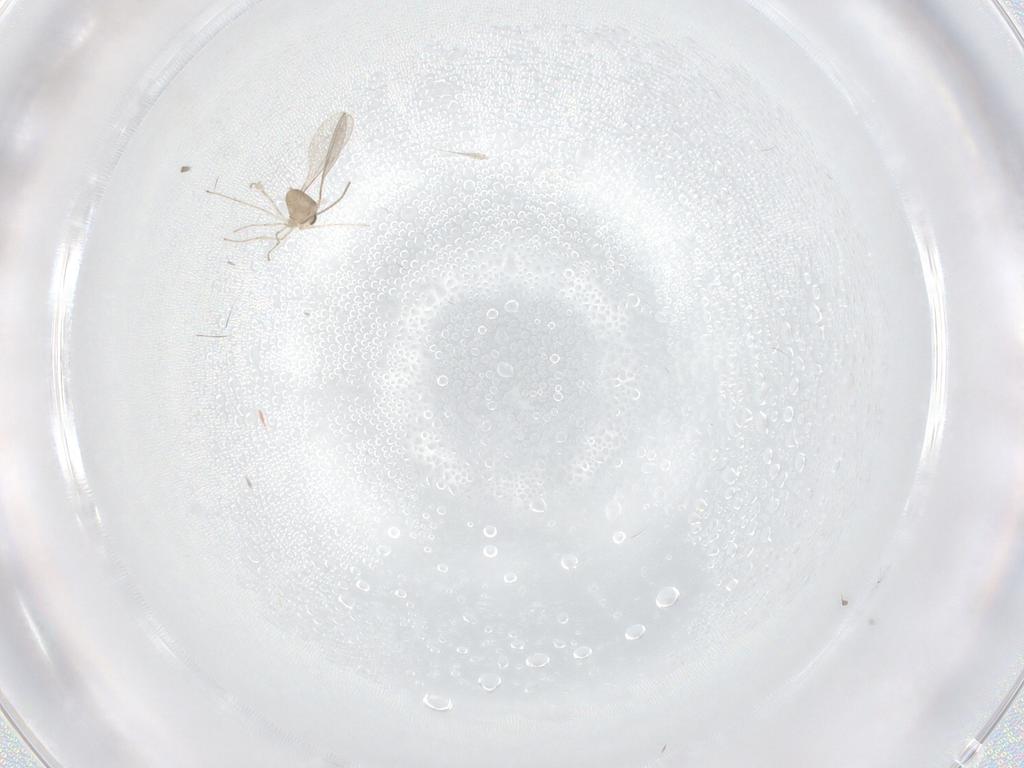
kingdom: Animalia
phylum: Arthropoda
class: Insecta
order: Diptera
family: Cecidomyiidae
